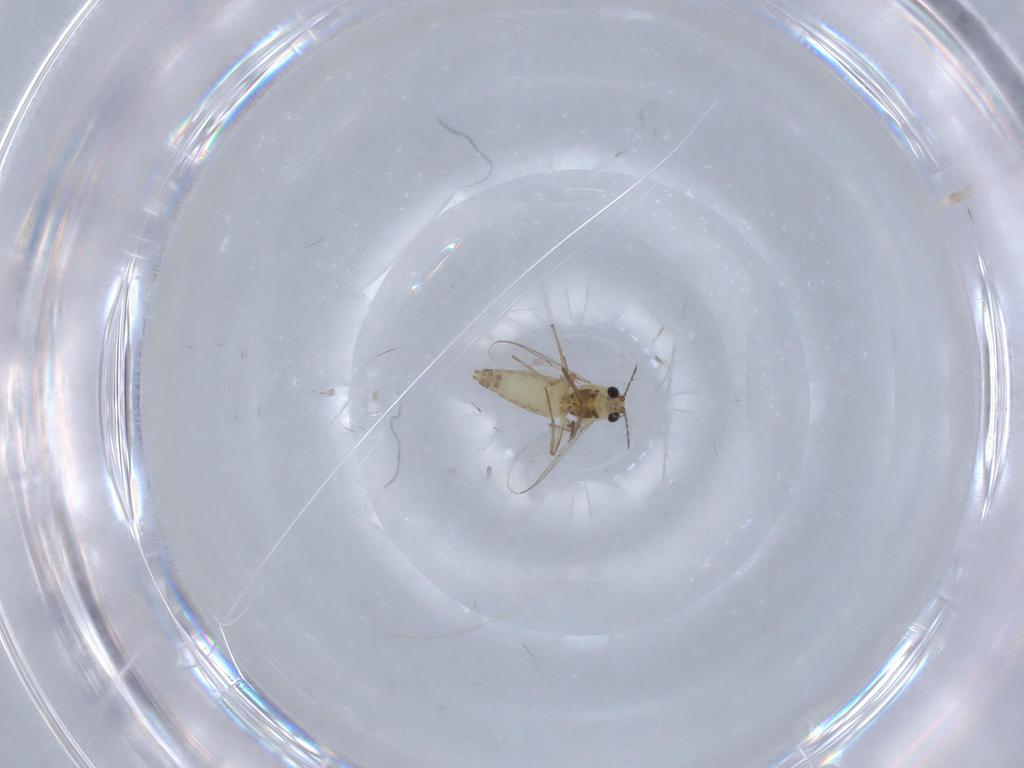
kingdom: Animalia
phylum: Arthropoda
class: Insecta
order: Diptera
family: Chironomidae
